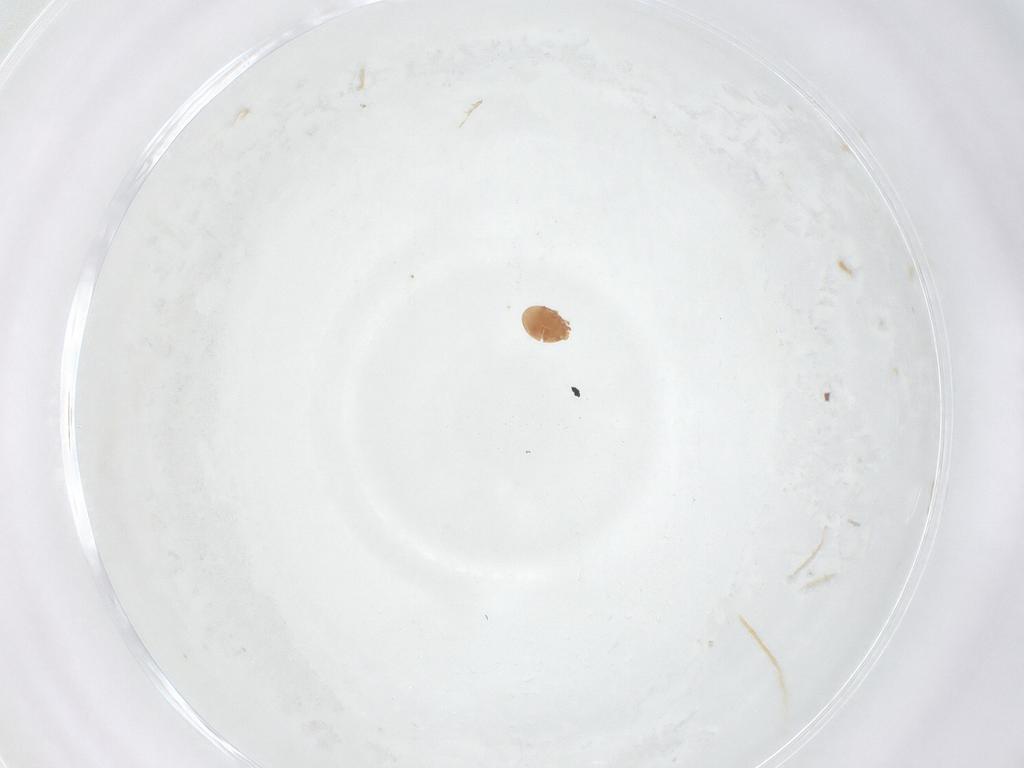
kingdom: Animalia
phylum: Arthropoda
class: Arachnida
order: Mesostigmata
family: Trematuridae
